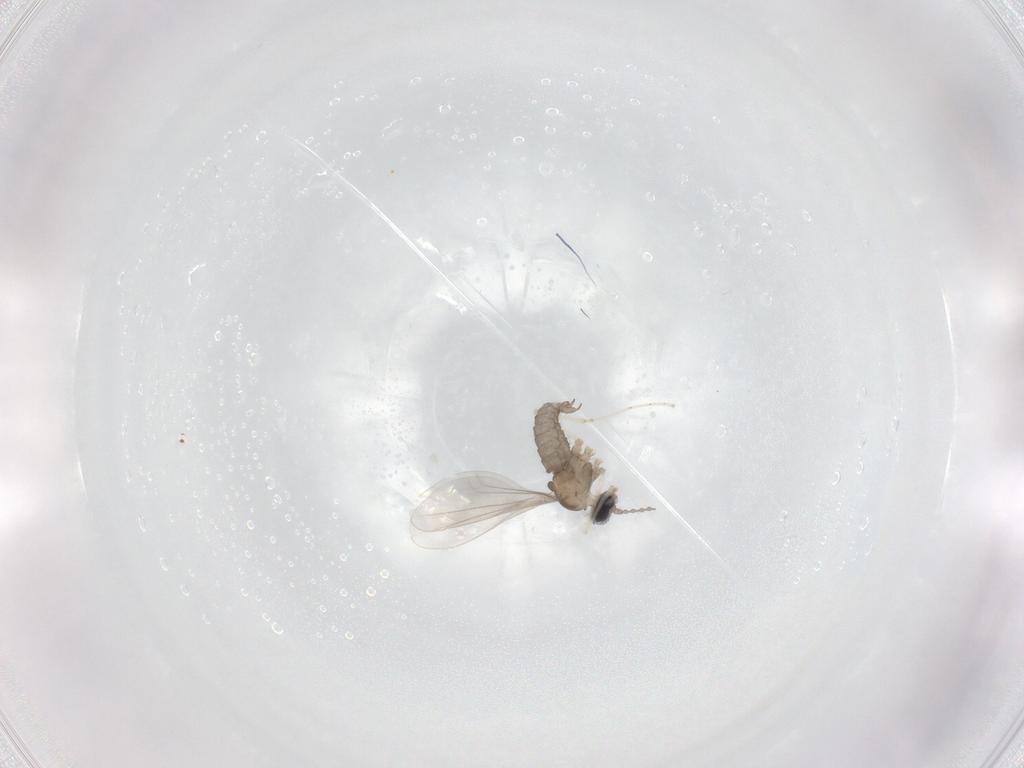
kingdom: Animalia
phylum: Arthropoda
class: Insecta
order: Diptera
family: Cecidomyiidae
